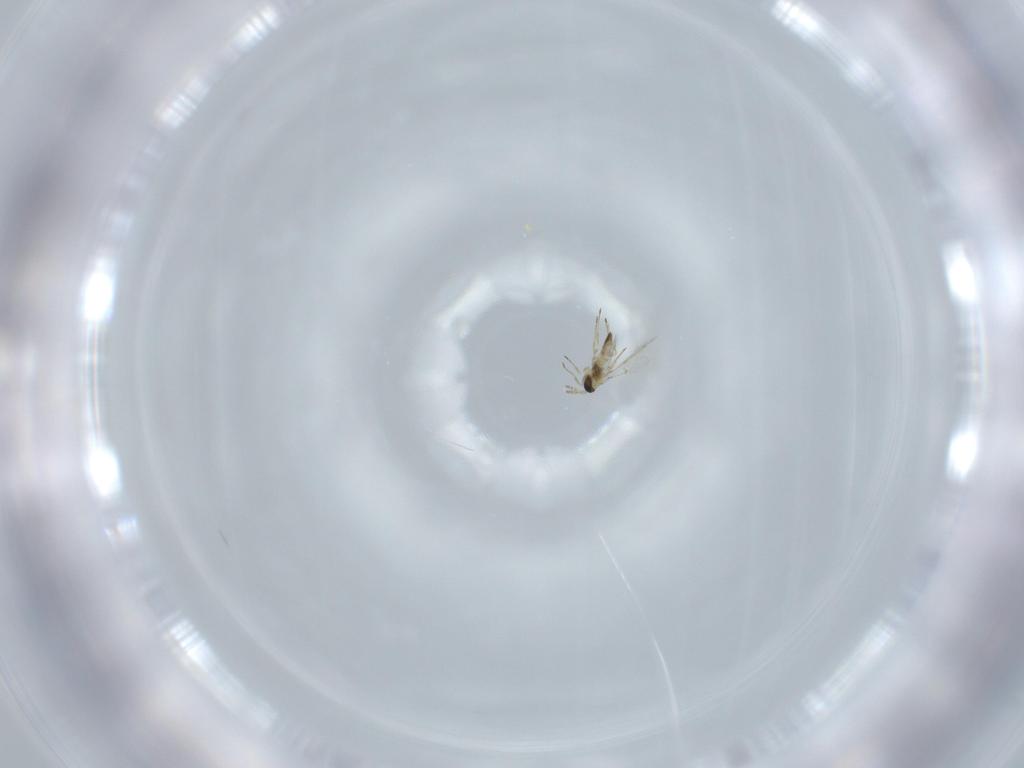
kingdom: Animalia
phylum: Arthropoda
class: Insecta
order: Hymenoptera
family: Trichogrammatidae
